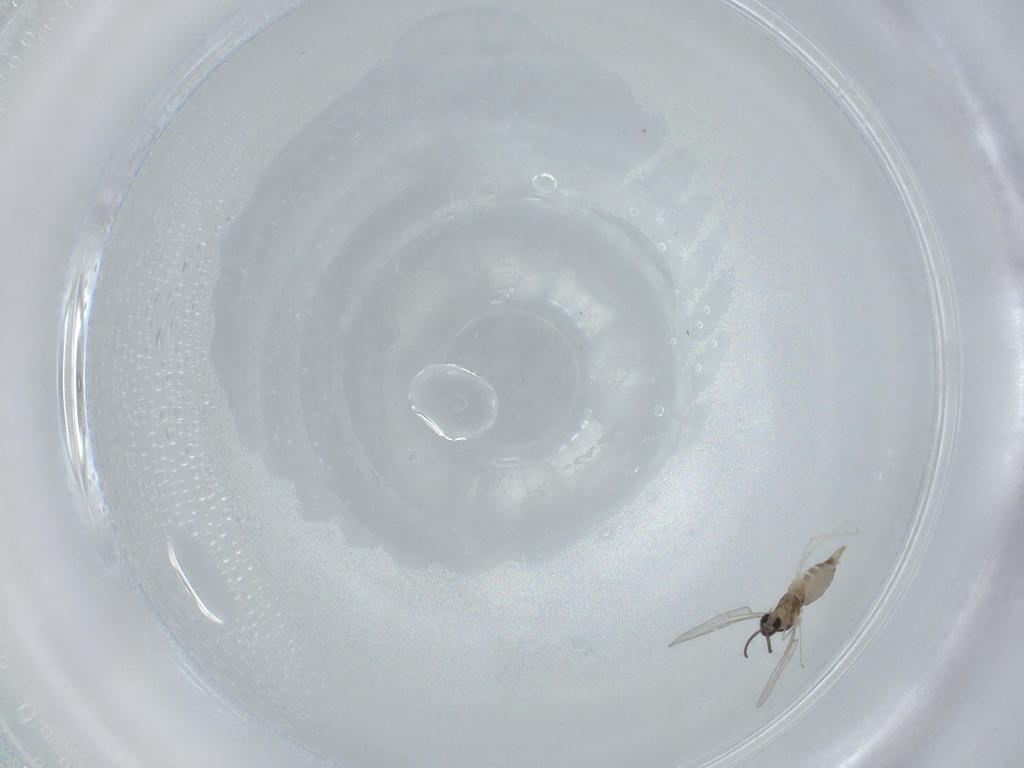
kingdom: Animalia
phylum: Arthropoda
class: Insecta
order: Diptera
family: Cecidomyiidae
